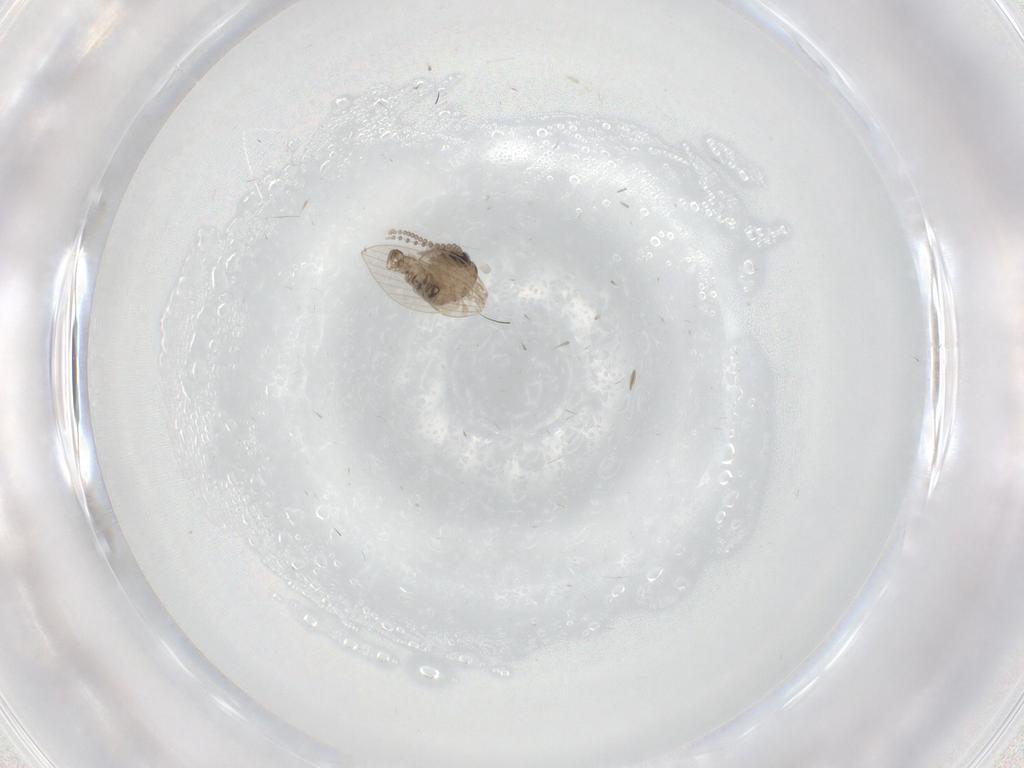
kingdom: Animalia
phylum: Arthropoda
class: Insecta
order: Diptera
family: Psychodidae
